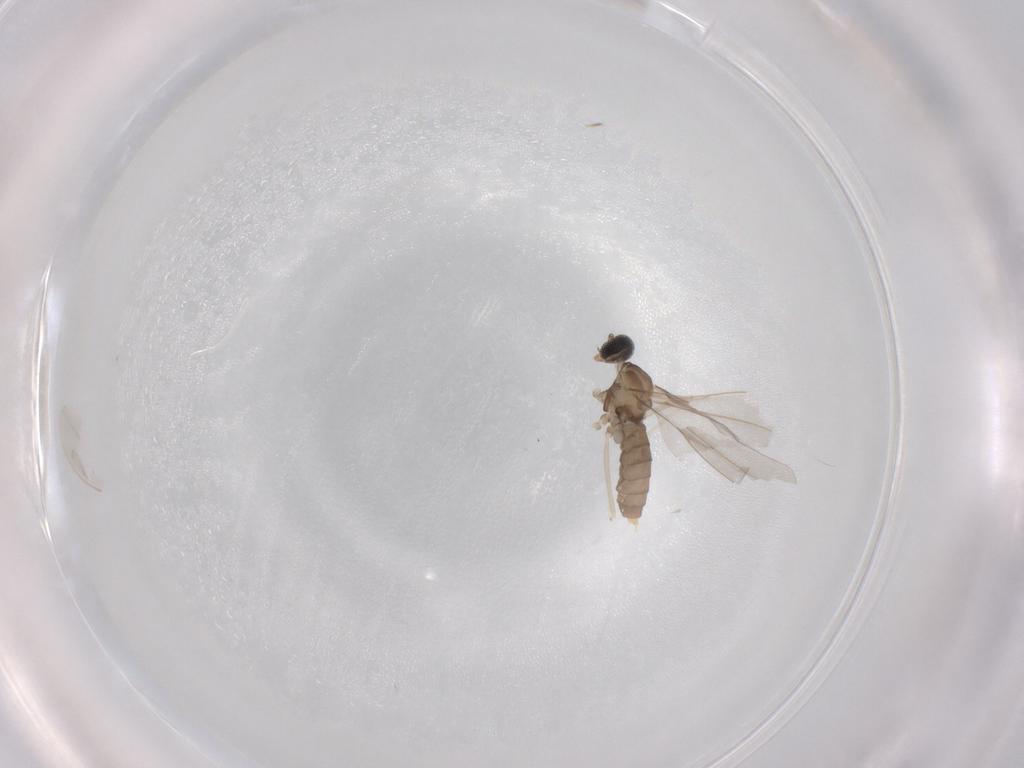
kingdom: Animalia
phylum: Arthropoda
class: Insecta
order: Diptera
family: Cecidomyiidae
